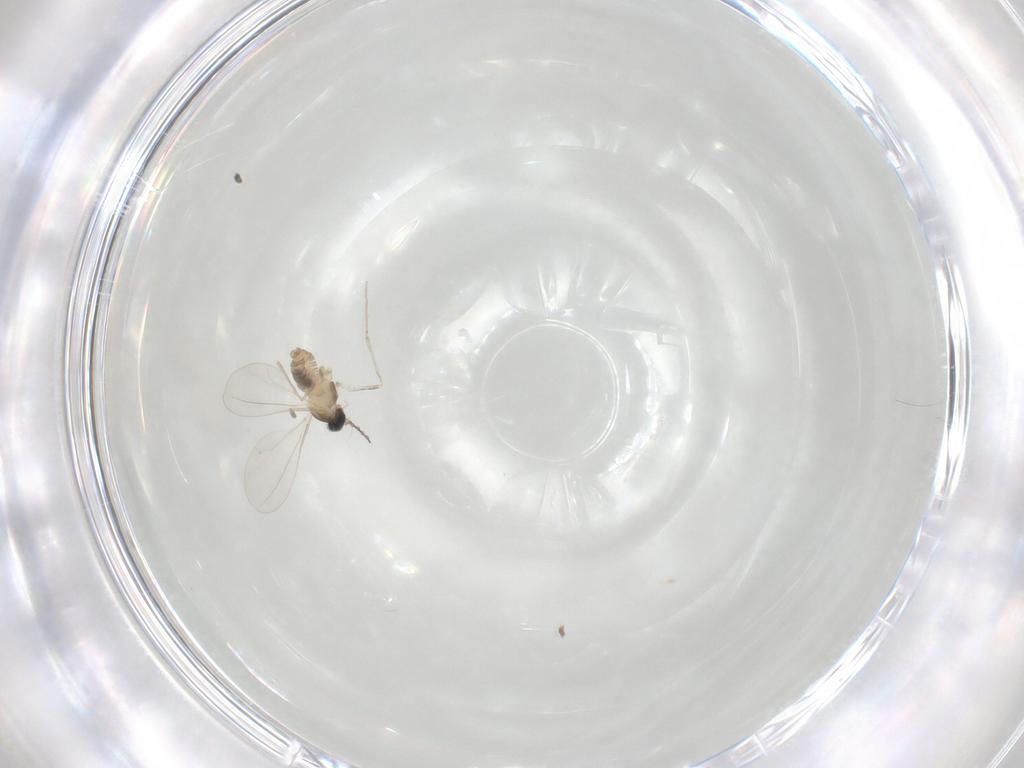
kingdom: Animalia
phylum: Arthropoda
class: Insecta
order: Diptera
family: Cecidomyiidae
